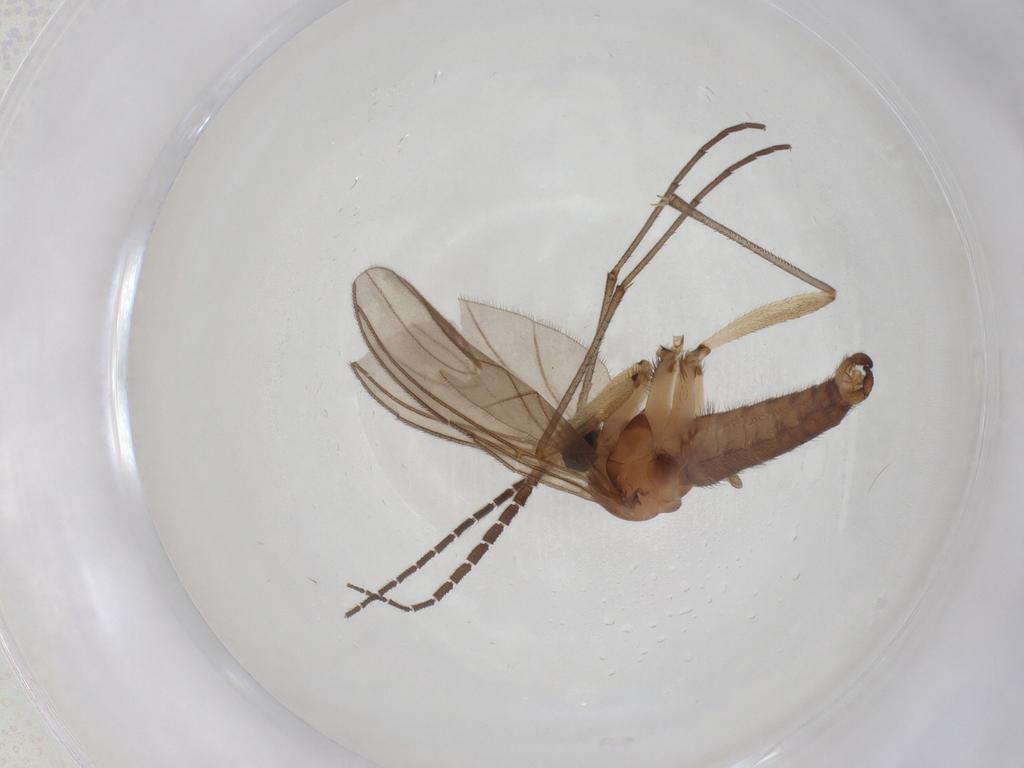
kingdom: Animalia
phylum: Arthropoda
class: Insecta
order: Diptera
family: Sciaridae
